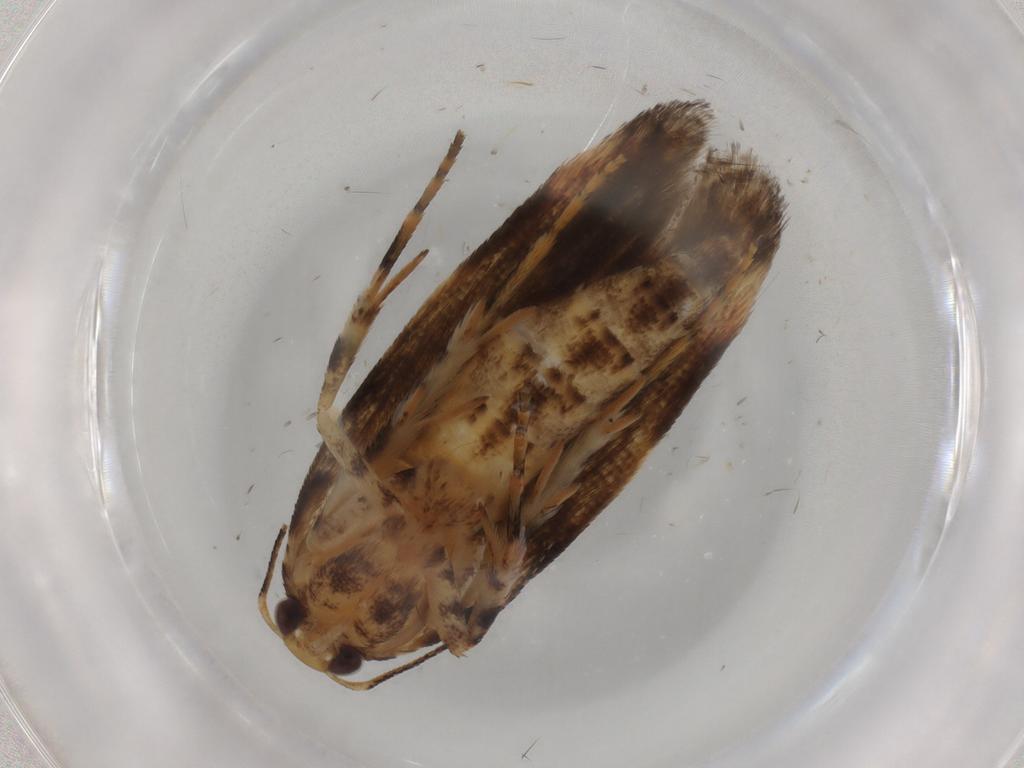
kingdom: Animalia
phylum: Arthropoda
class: Insecta
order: Lepidoptera
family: Gelechiidae
